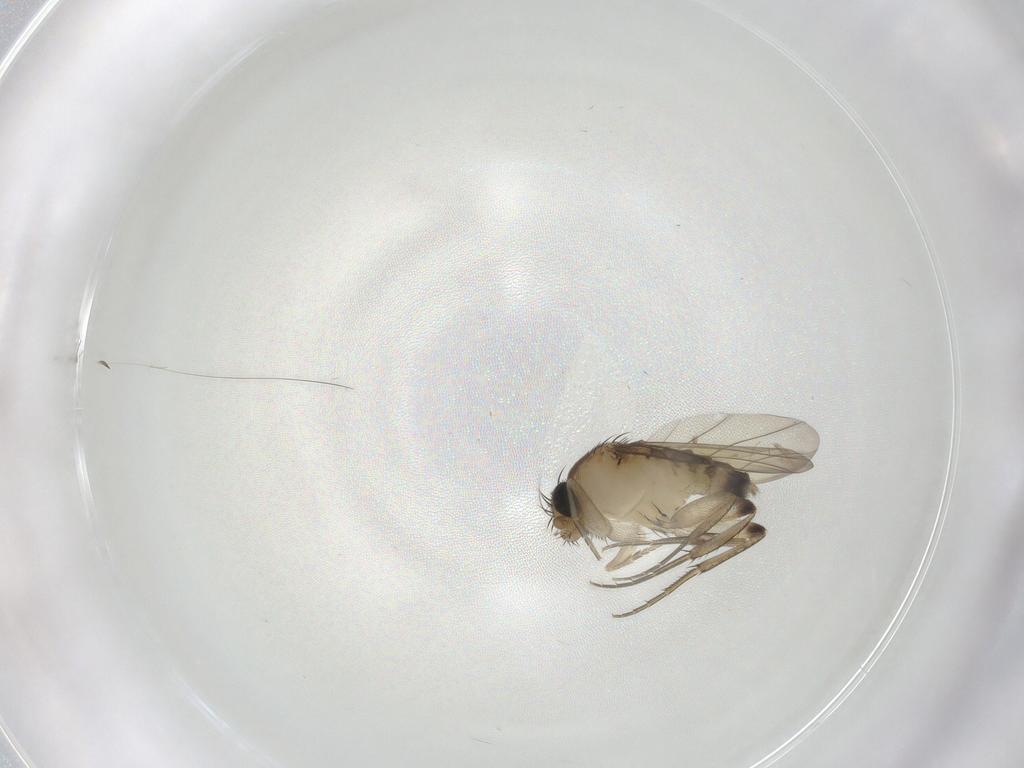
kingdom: Animalia
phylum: Arthropoda
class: Insecta
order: Diptera
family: Phoridae
